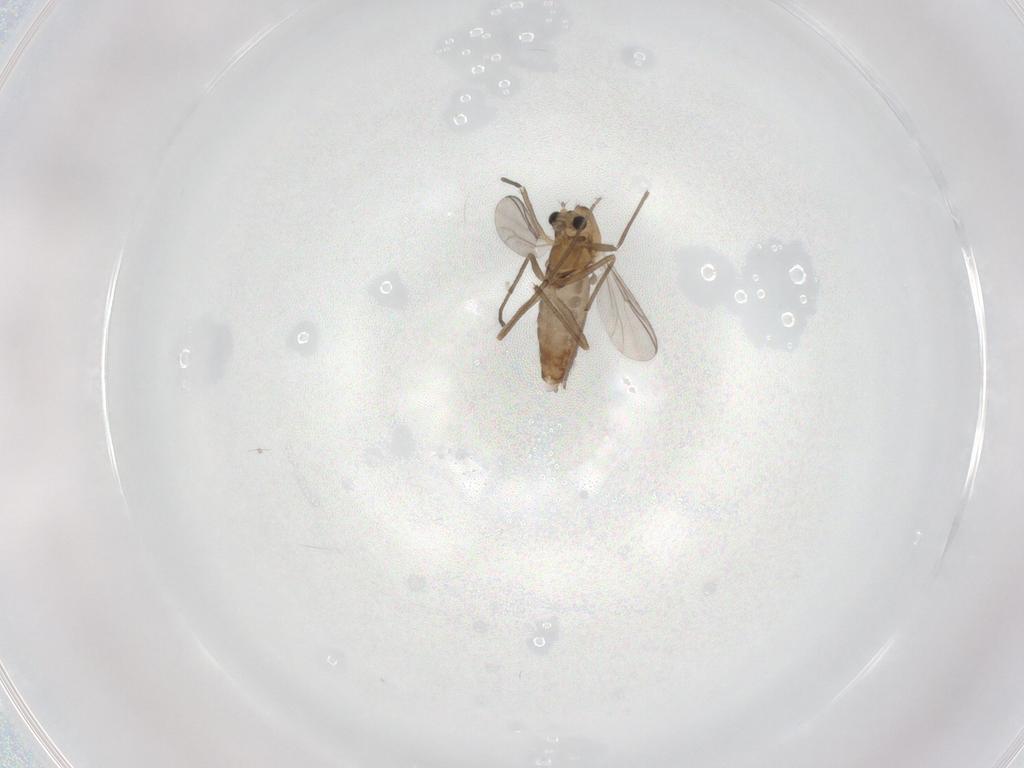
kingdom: Animalia
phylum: Arthropoda
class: Insecta
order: Diptera
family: Chironomidae
